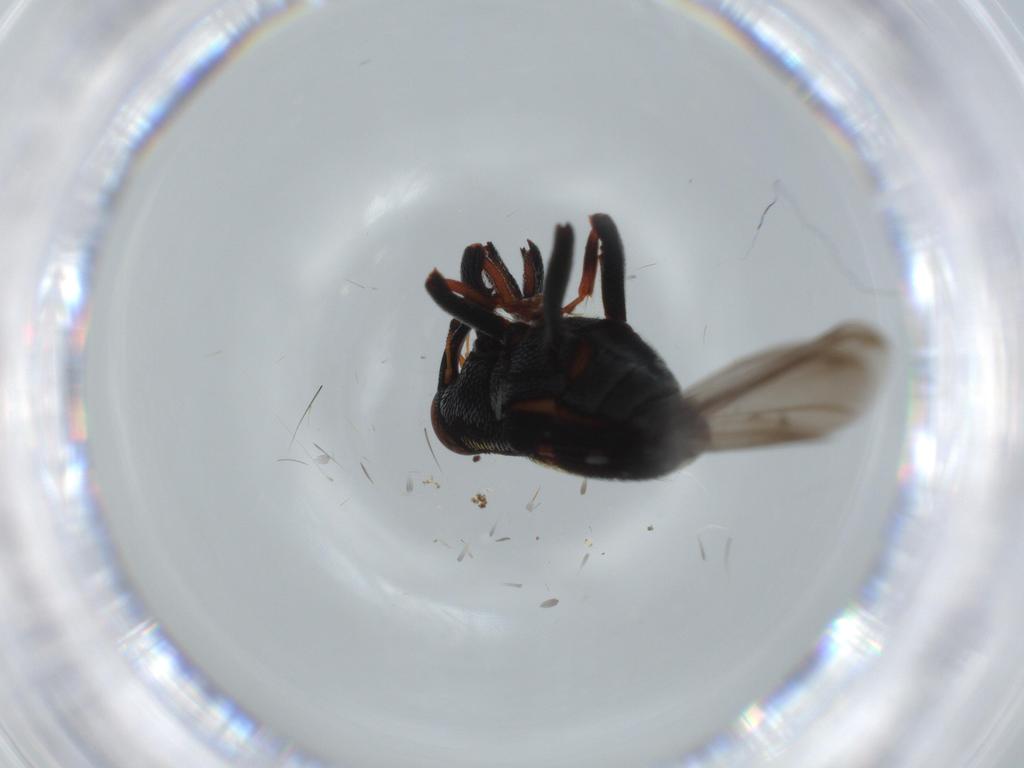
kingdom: Animalia
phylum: Arthropoda
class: Insecta
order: Coleoptera
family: Curculionidae
